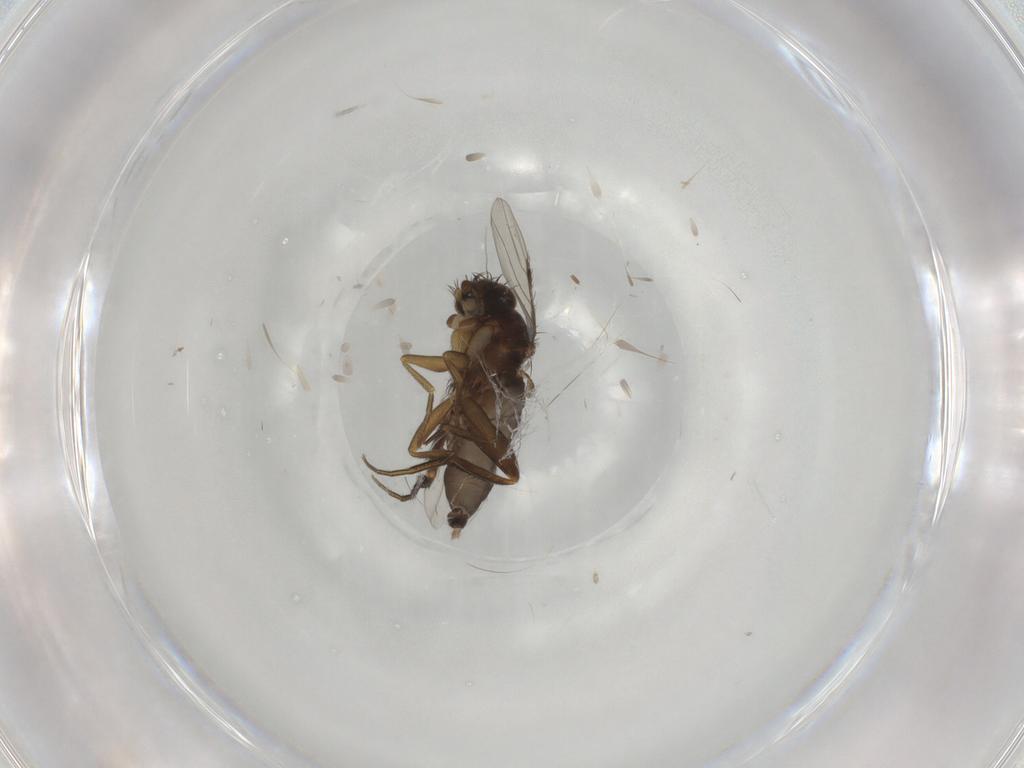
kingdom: Animalia
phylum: Arthropoda
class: Insecta
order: Diptera
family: Phoridae
